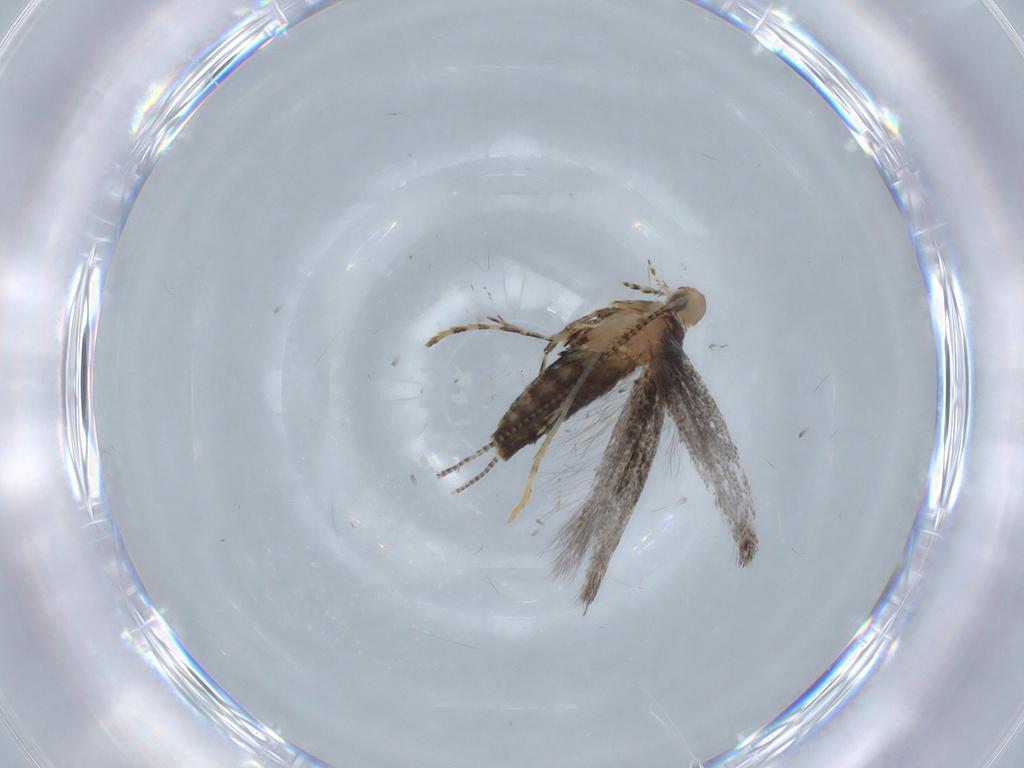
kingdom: Animalia
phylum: Arthropoda
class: Insecta
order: Lepidoptera
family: Gracillariidae
